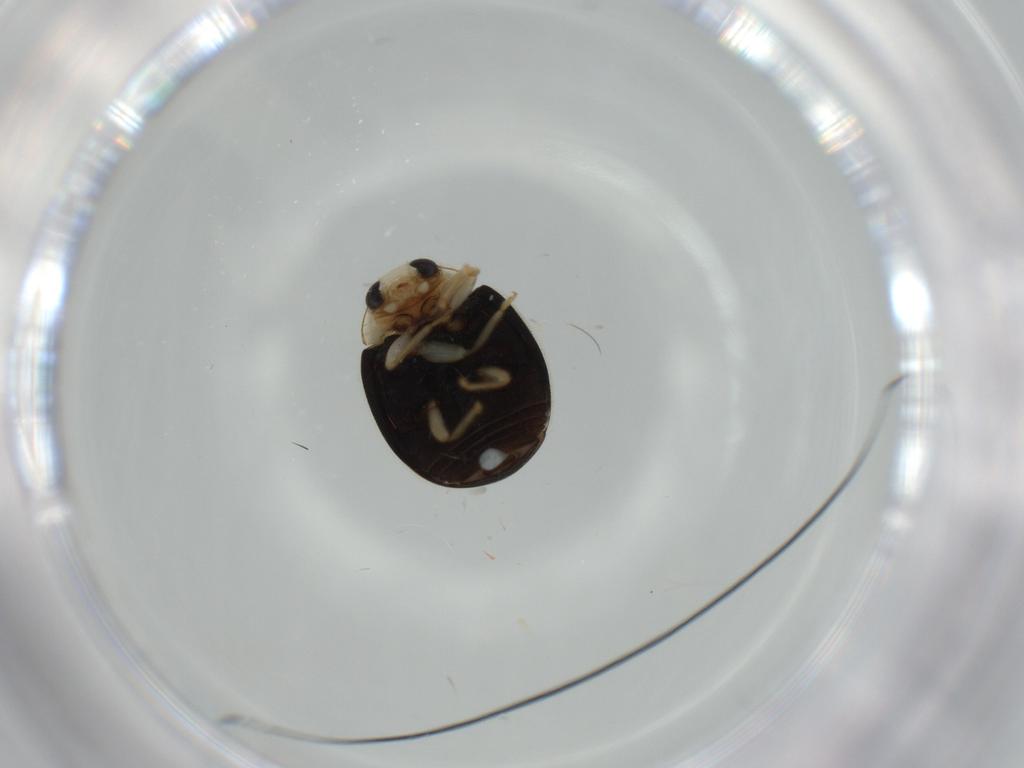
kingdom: Animalia
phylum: Arthropoda
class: Insecta
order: Coleoptera
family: Coccinellidae
